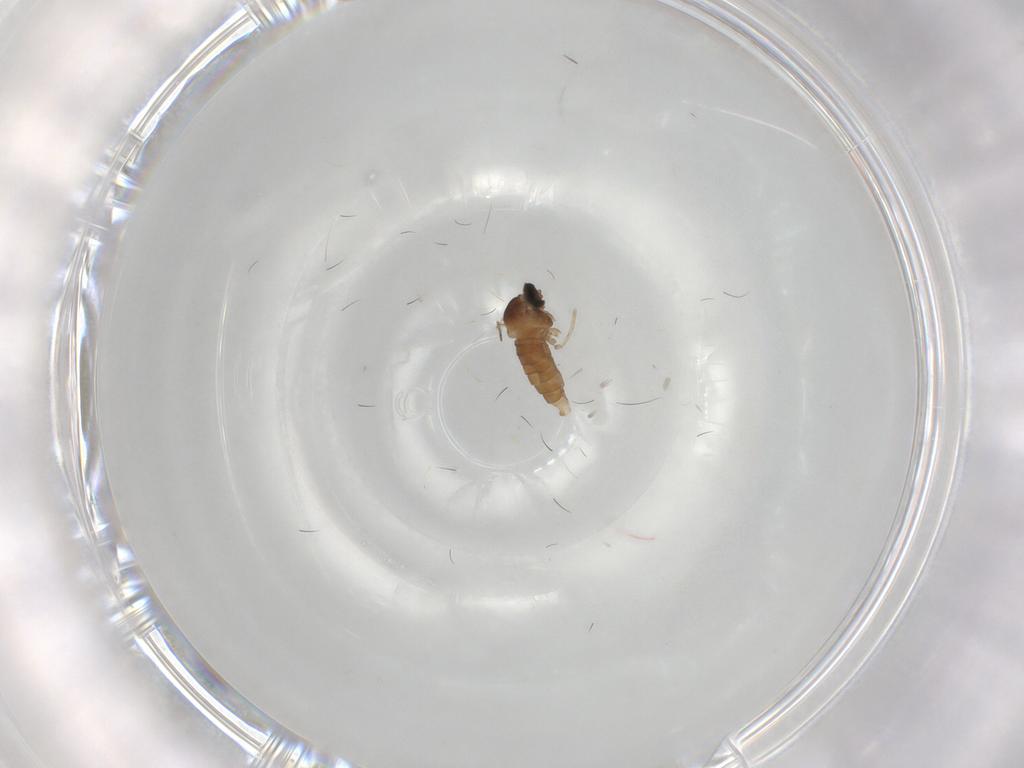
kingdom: Animalia
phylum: Arthropoda
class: Insecta
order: Diptera
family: Cecidomyiidae
